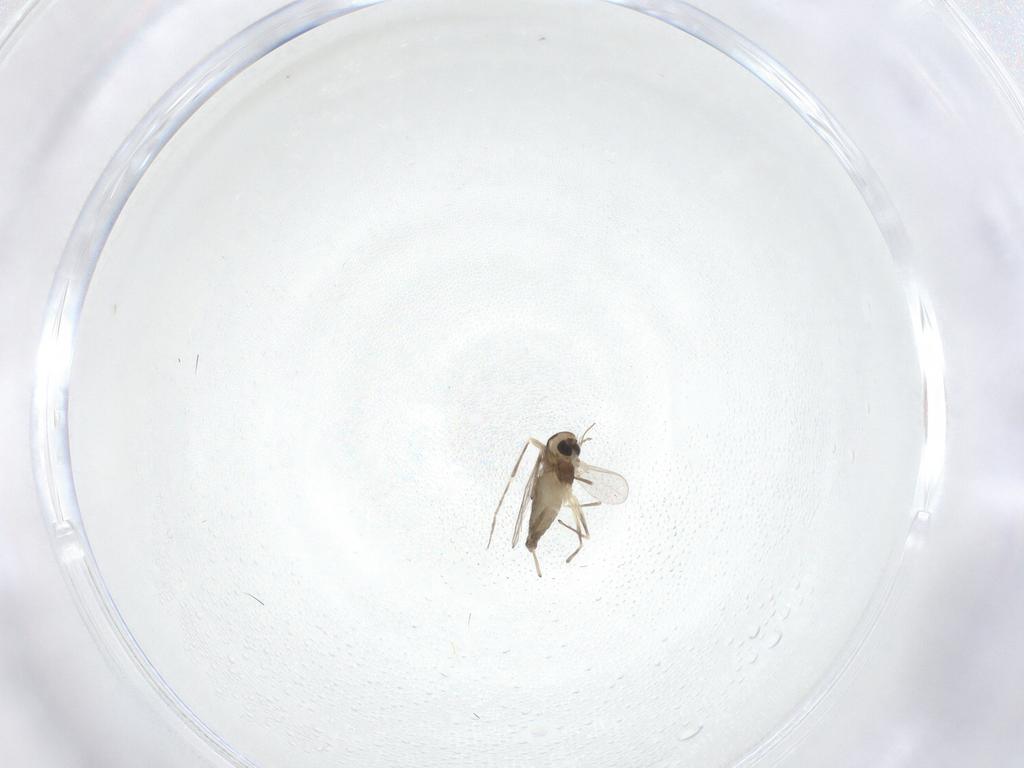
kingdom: Animalia
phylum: Arthropoda
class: Insecta
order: Diptera
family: Chironomidae
